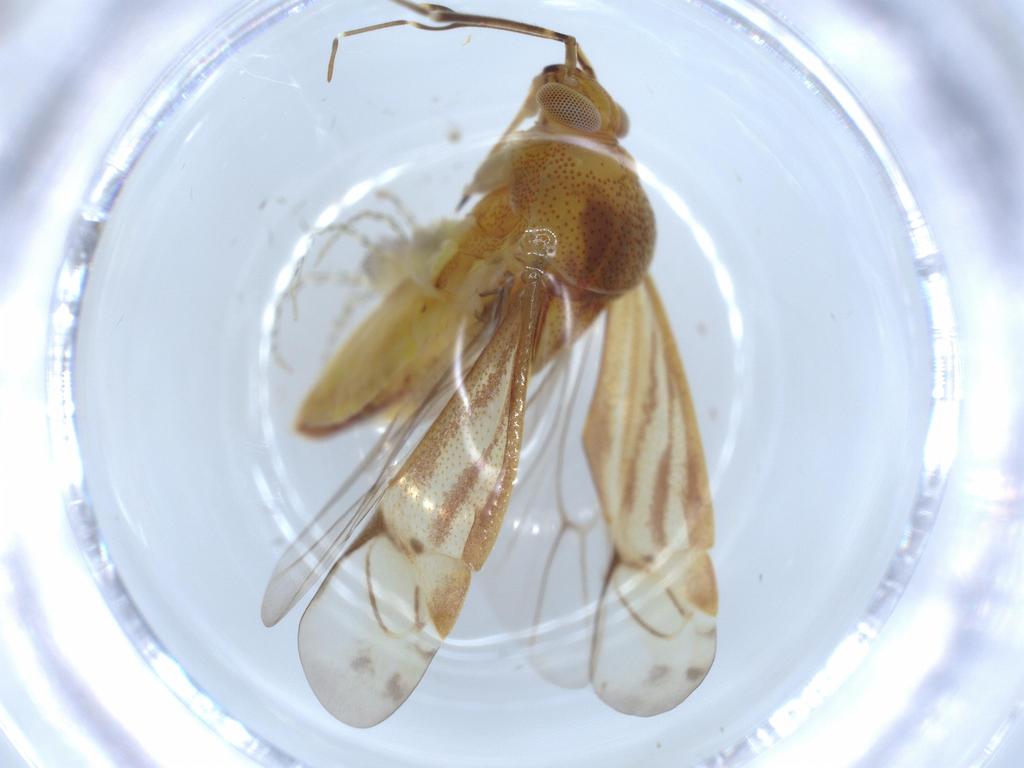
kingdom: Animalia
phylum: Arthropoda
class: Insecta
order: Hemiptera
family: Miridae
